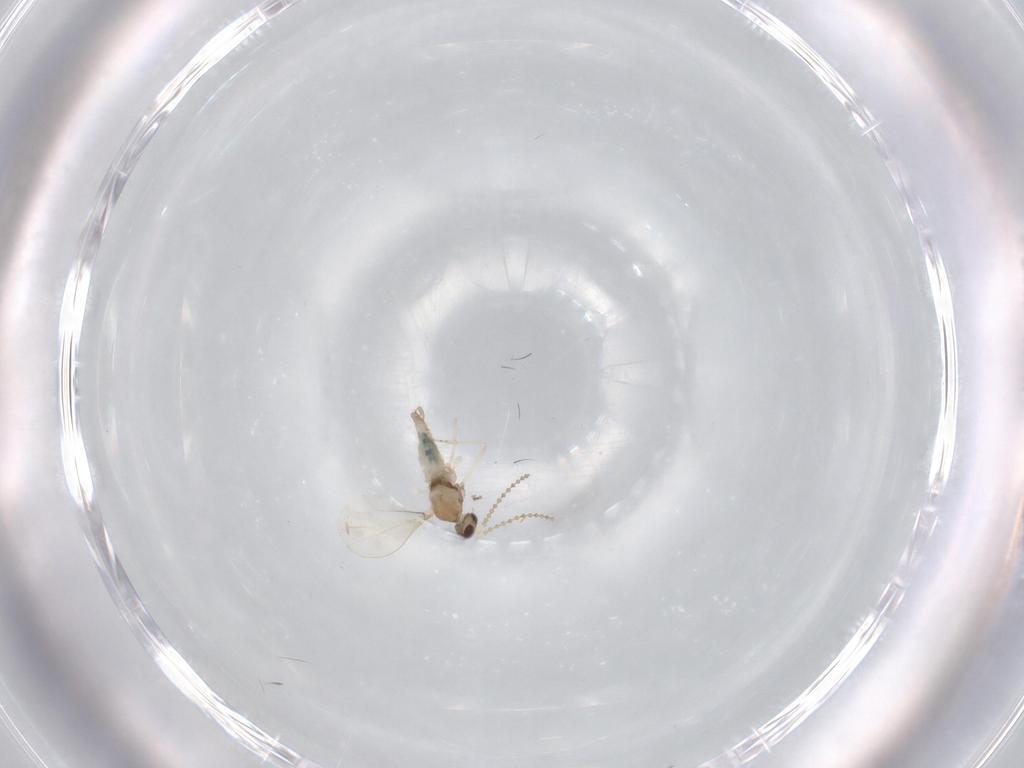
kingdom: Animalia
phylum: Arthropoda
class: Insecta
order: Diptera
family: Cecidomyiidae
